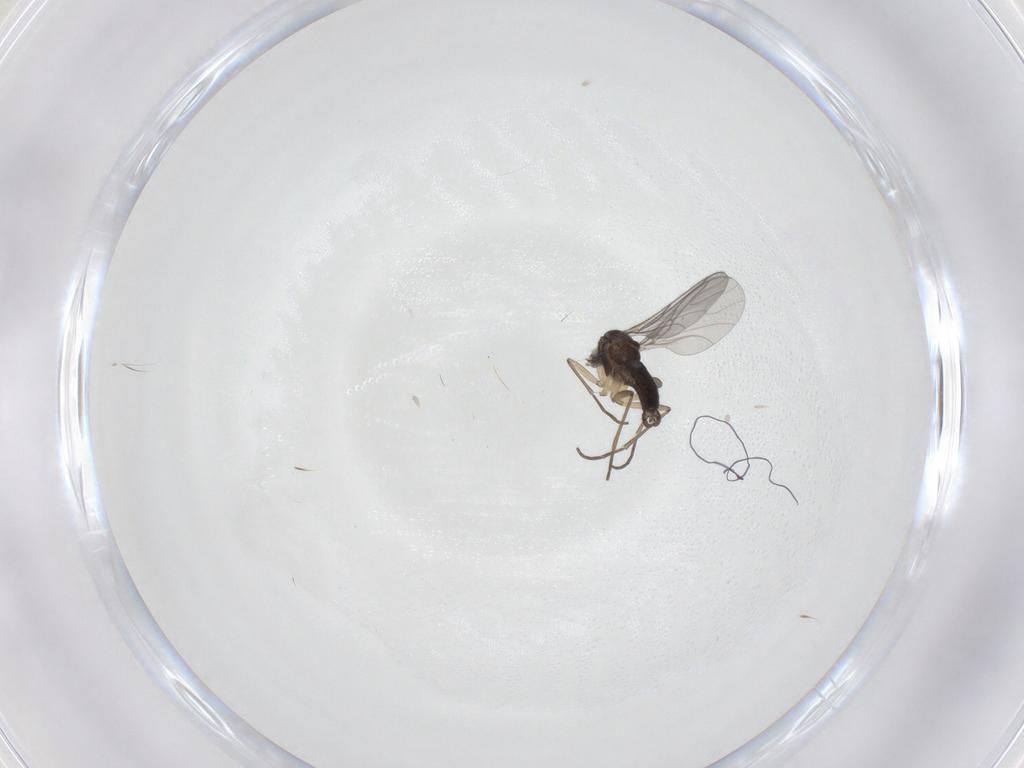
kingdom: Animalia
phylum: Arthropoda
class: Insecta
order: Diptera
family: Sciaridae
